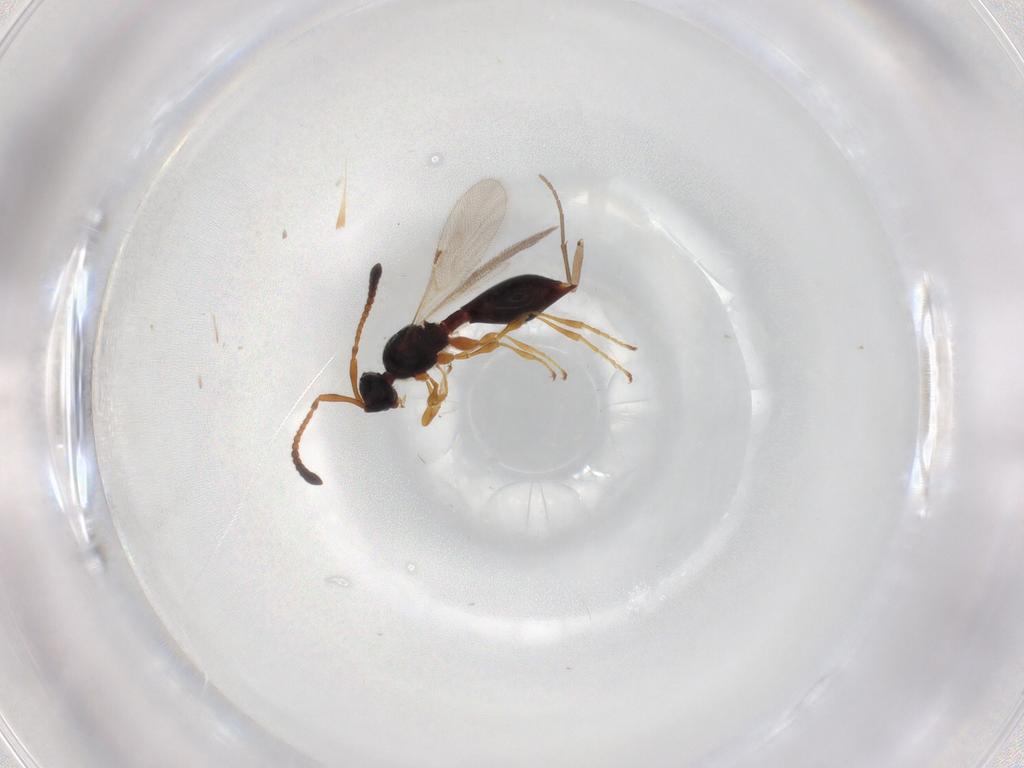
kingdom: Animalia
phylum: Arthropoda
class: Insecta
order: Hymenoptera
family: Diapriidae
